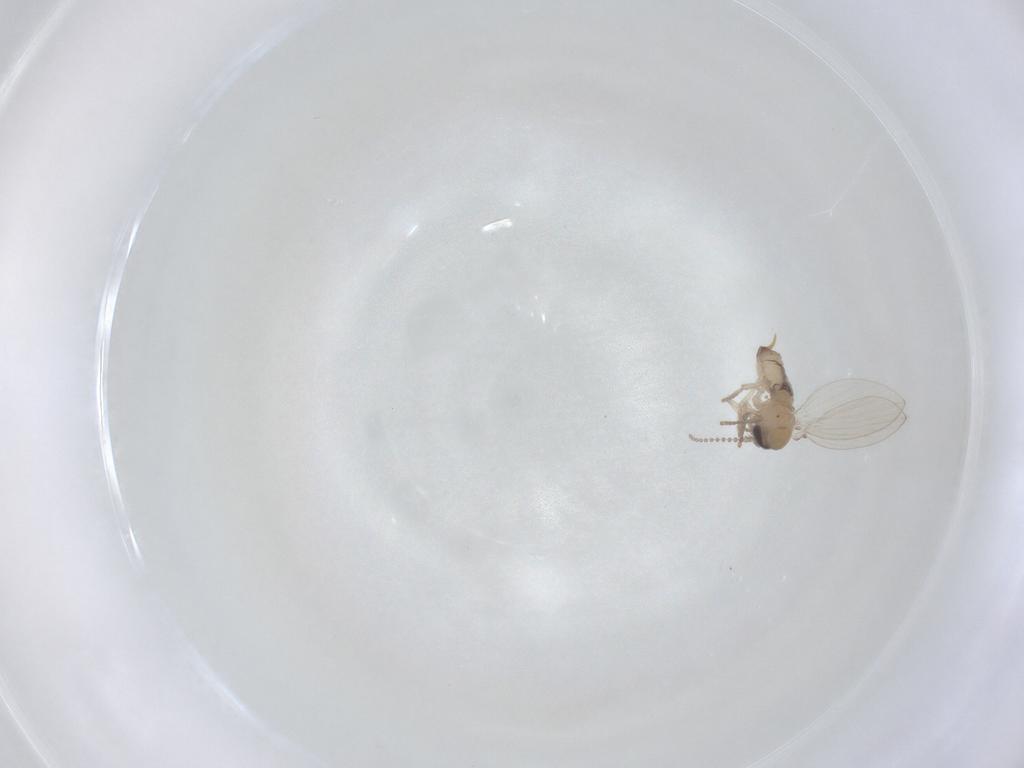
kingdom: Animalia
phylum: Arthropoda
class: Insecta
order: Diptera
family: Psychodidae
